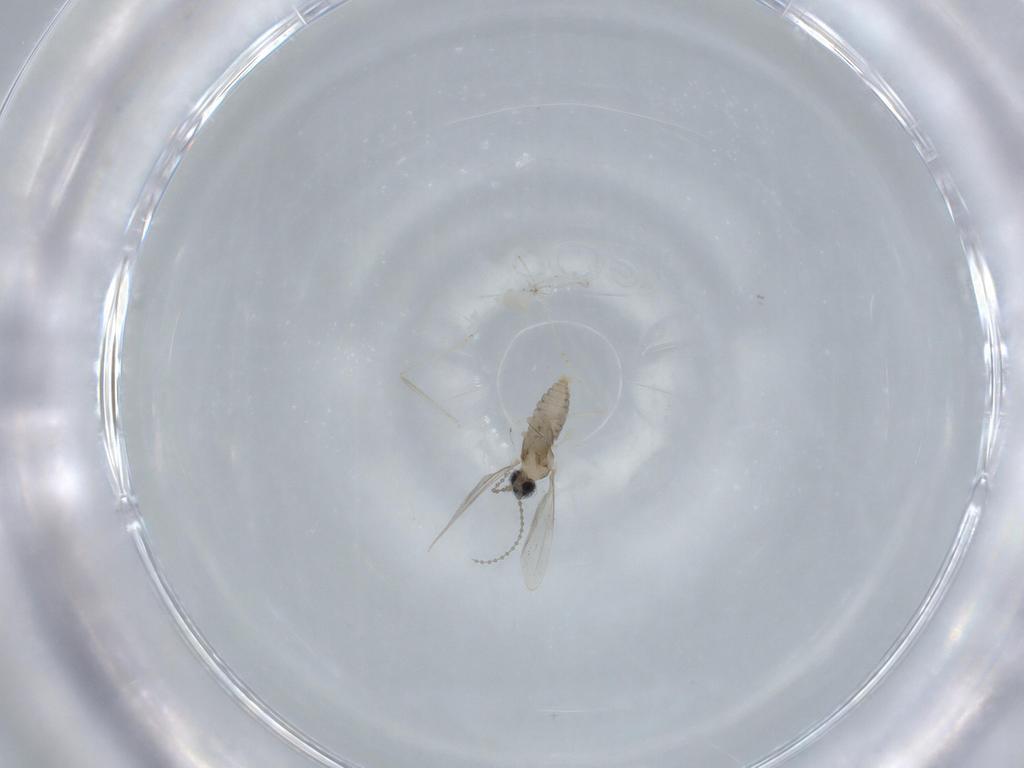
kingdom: Animalia
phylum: Arthropoda
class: Insecta
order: Diptera
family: Cecidomyiidae
